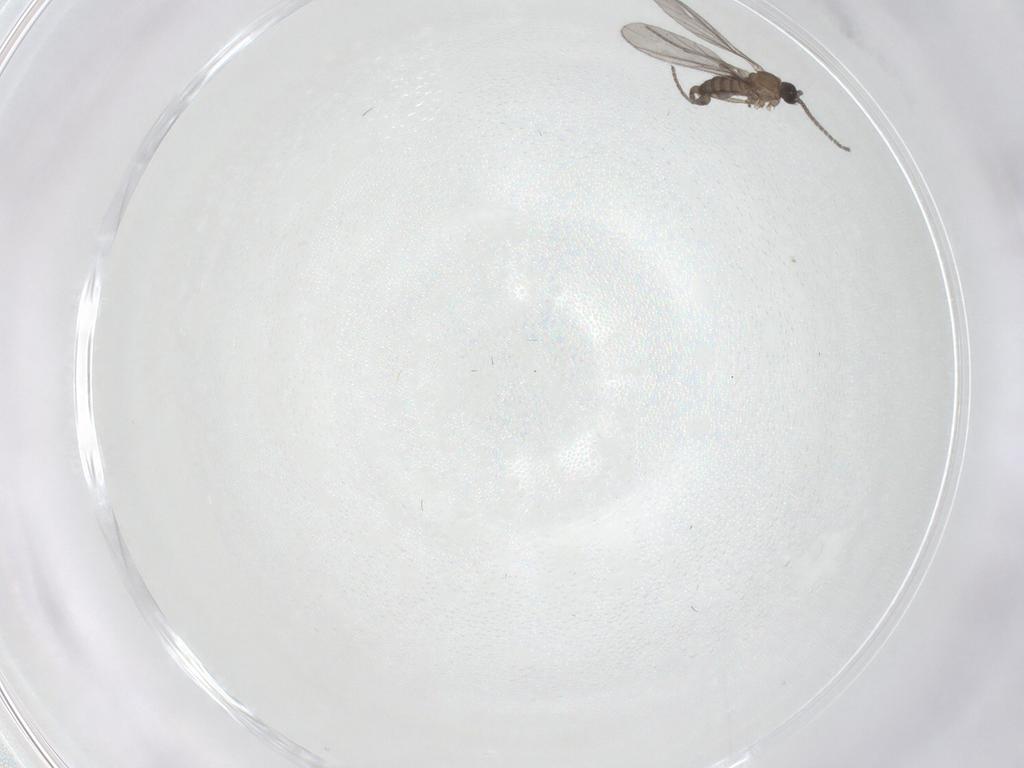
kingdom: Animalia
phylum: Arthropoda
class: Insecta
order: Diptera
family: Sciaridae
